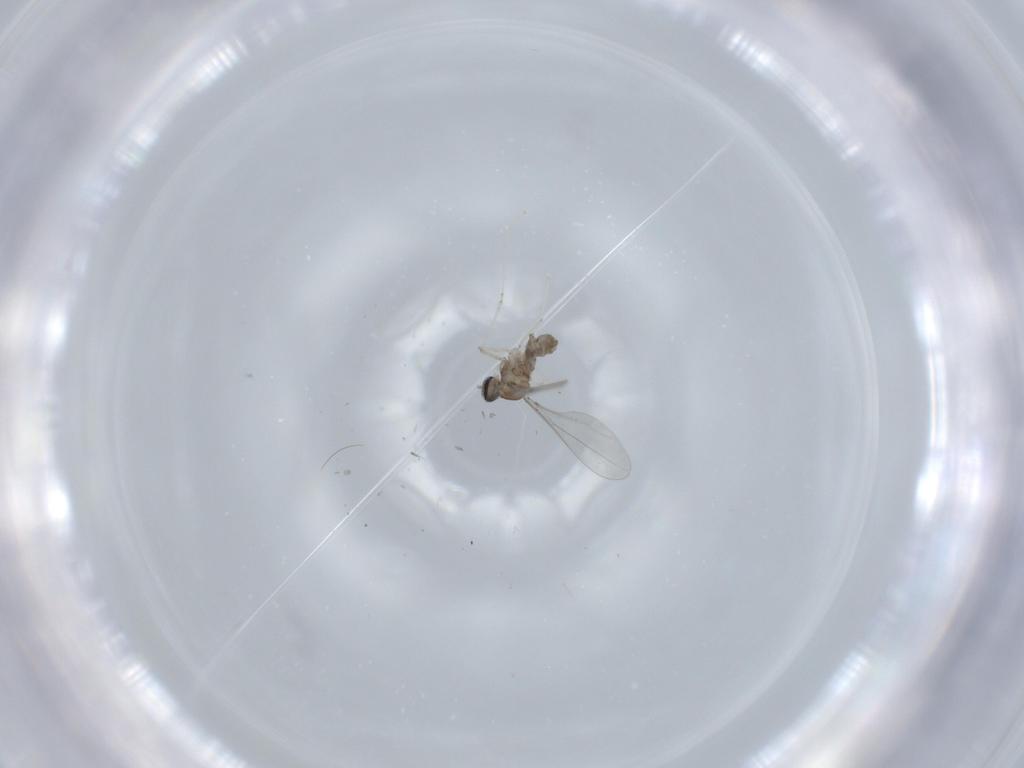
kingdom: Animalia
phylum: Arthropoda
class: Insecta
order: Diptera
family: Cecidomyiidae
